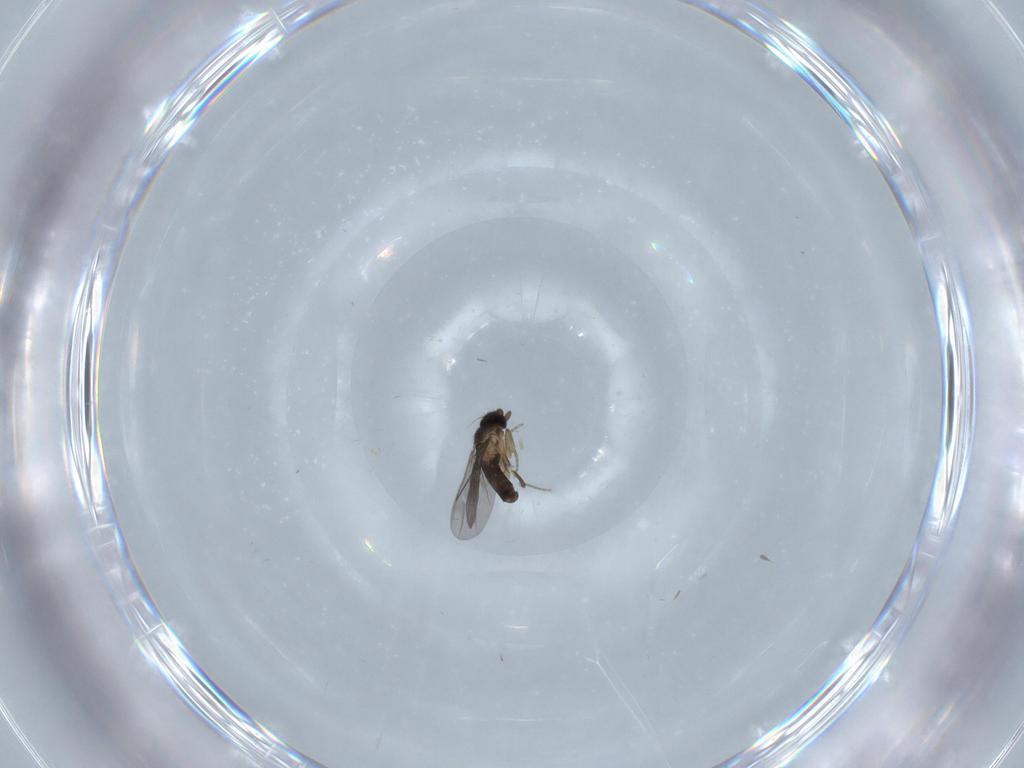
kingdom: Animalia
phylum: Arthropoda
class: Insecta
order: Diptera
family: Chironomidae
